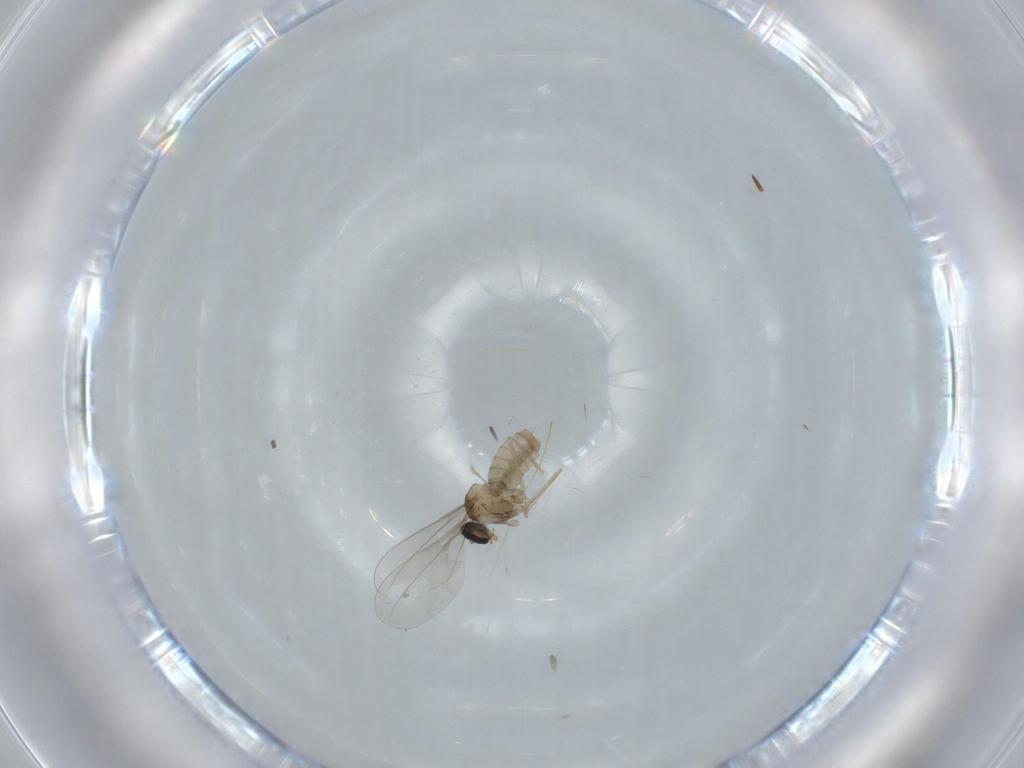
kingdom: Animalia
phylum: Arthropoda
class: Insecta
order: Diptera
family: Cecidomyiidae
